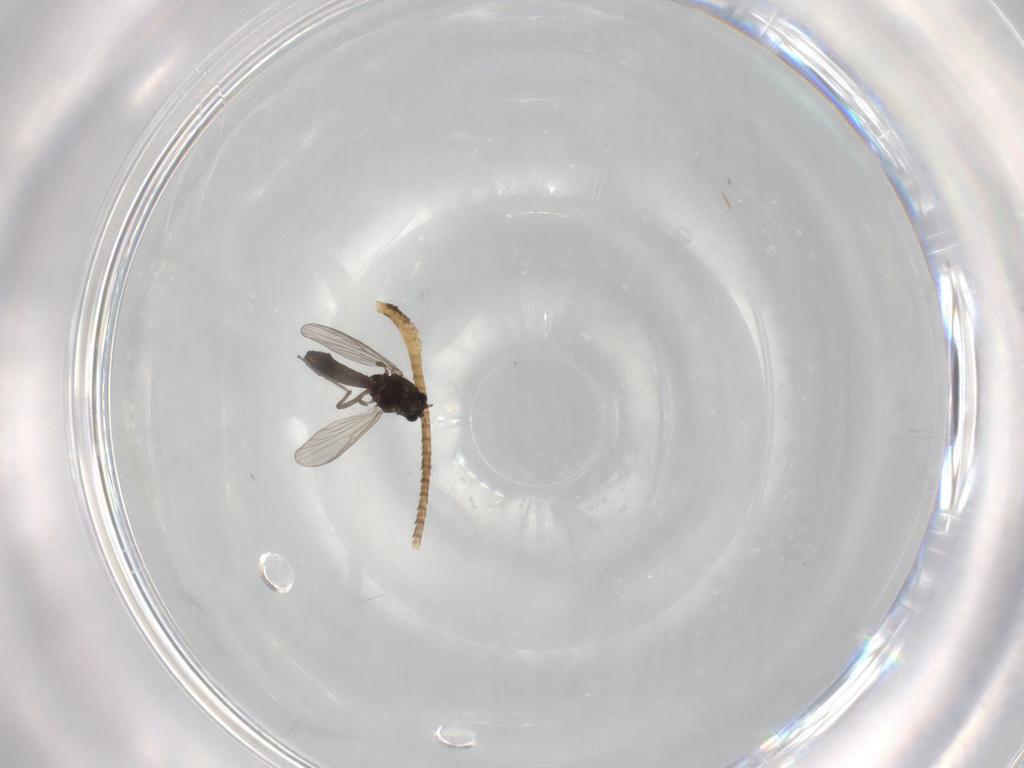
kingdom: Animalia
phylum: Arthropoda
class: Insecta
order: Diptera
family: Chironomidae
